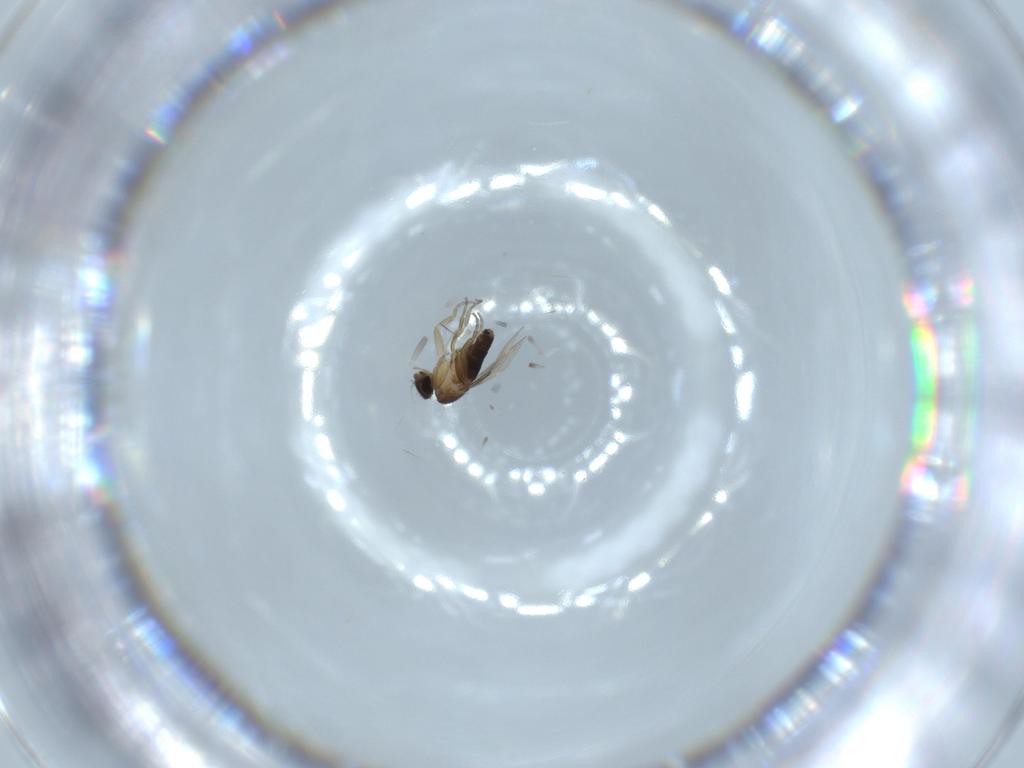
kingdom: Animalia
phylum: Arthropoda
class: Insecta
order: Diptera
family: Phoridae
